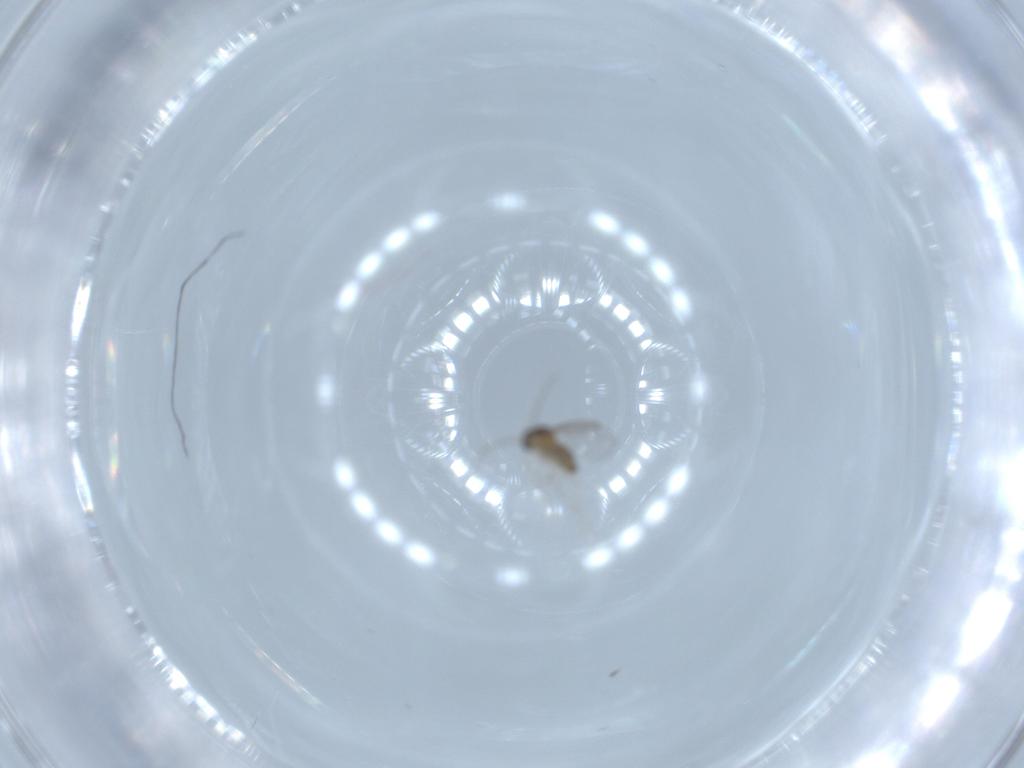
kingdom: Animalia
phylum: Arthropoda
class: Insecta
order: Diptera
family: Cecidomyiidae
